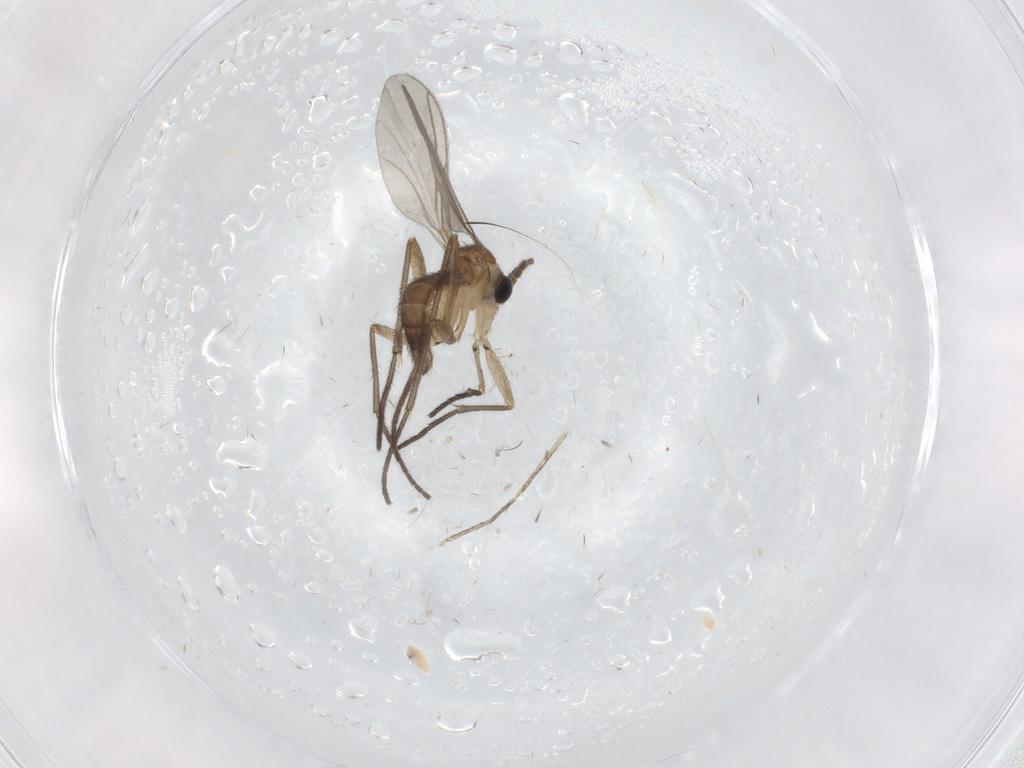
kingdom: Animalia
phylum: Arthropoda
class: Insecta
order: Diptera
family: Sciaridae
